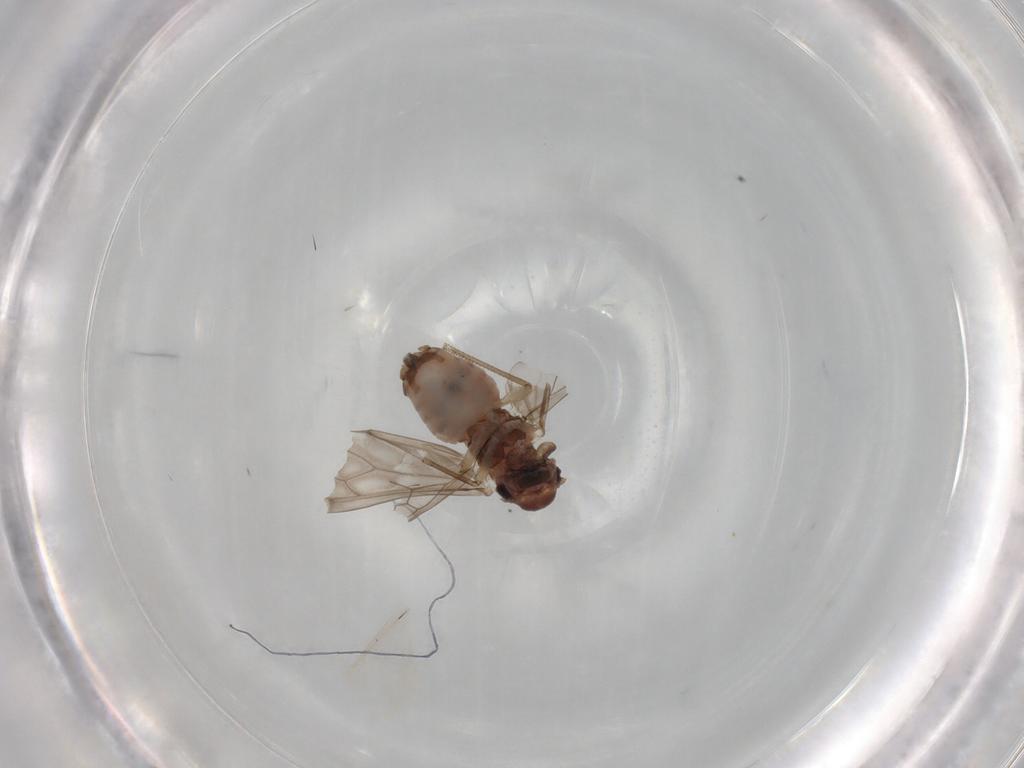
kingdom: Animalia
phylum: Arthropoda
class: Insecta
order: Psocodea
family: Peripsocidae
